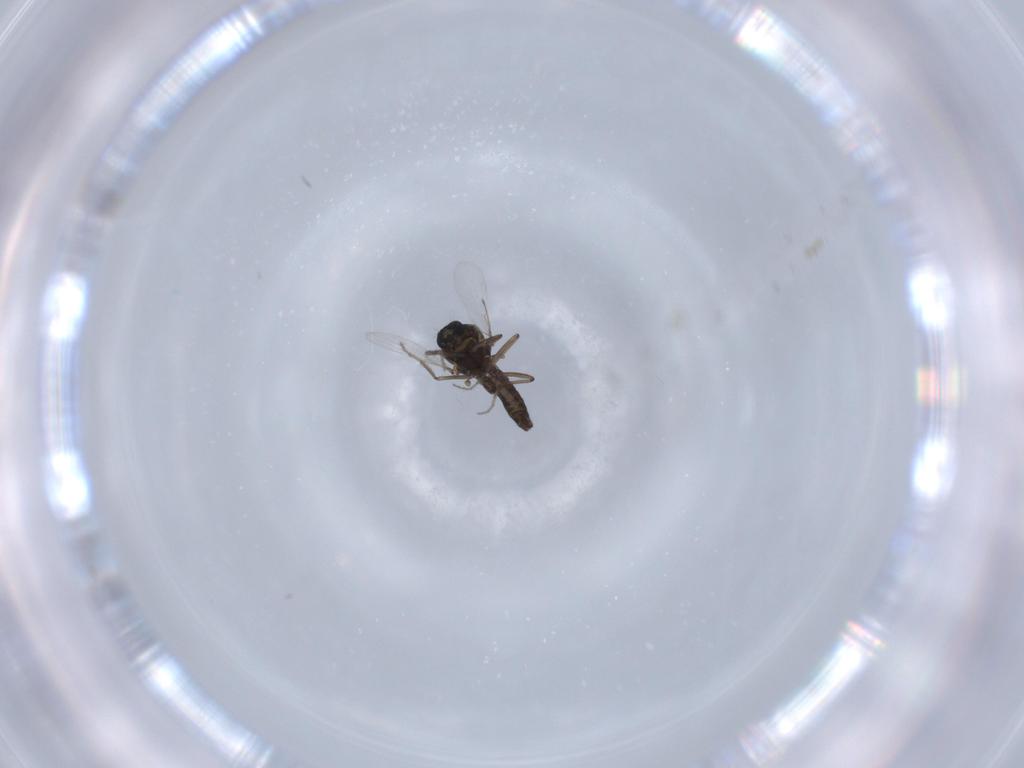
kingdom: Animalia
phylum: Arthropoda
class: Insecta
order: Diptera
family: Ceratopogonidae
